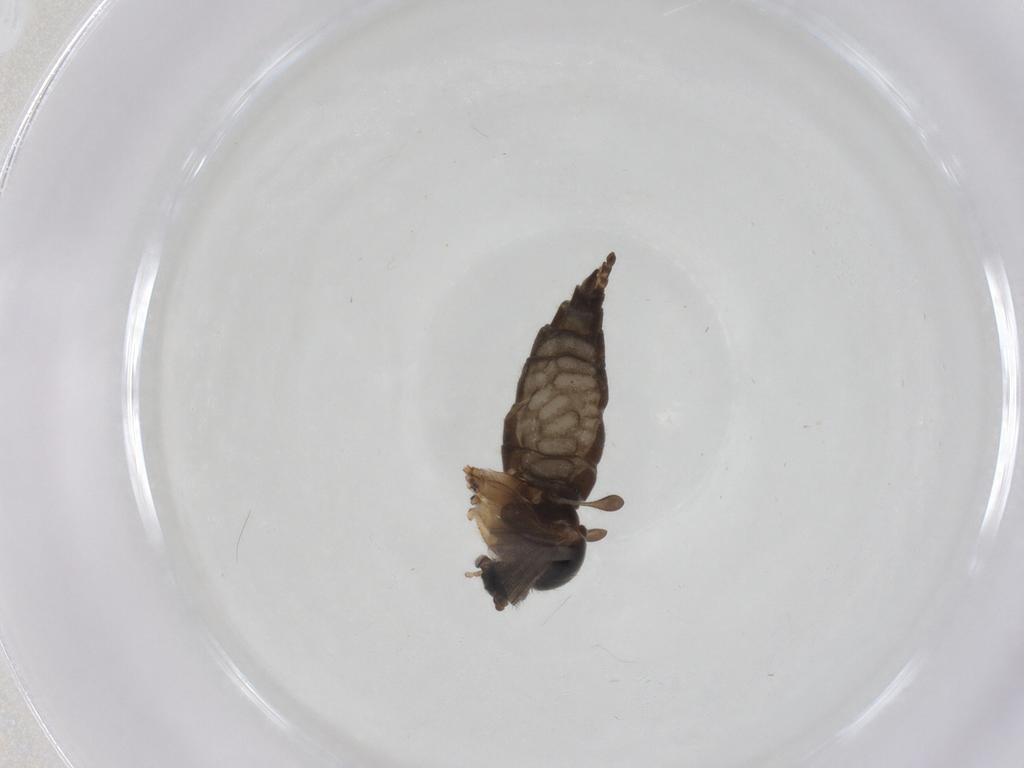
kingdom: Animalia
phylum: Arthropoda
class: Insecta
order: Diptera
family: Sciaridae
